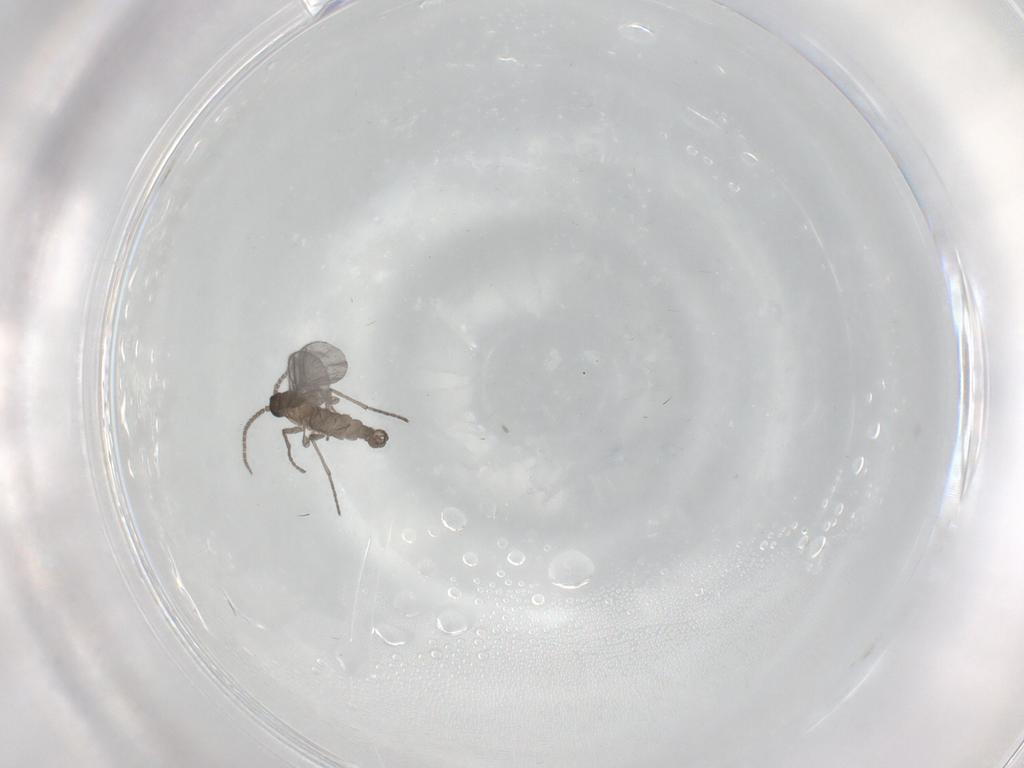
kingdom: Animalia
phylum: Arthropoda
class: Insecta
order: Diptera
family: Sciaridae
